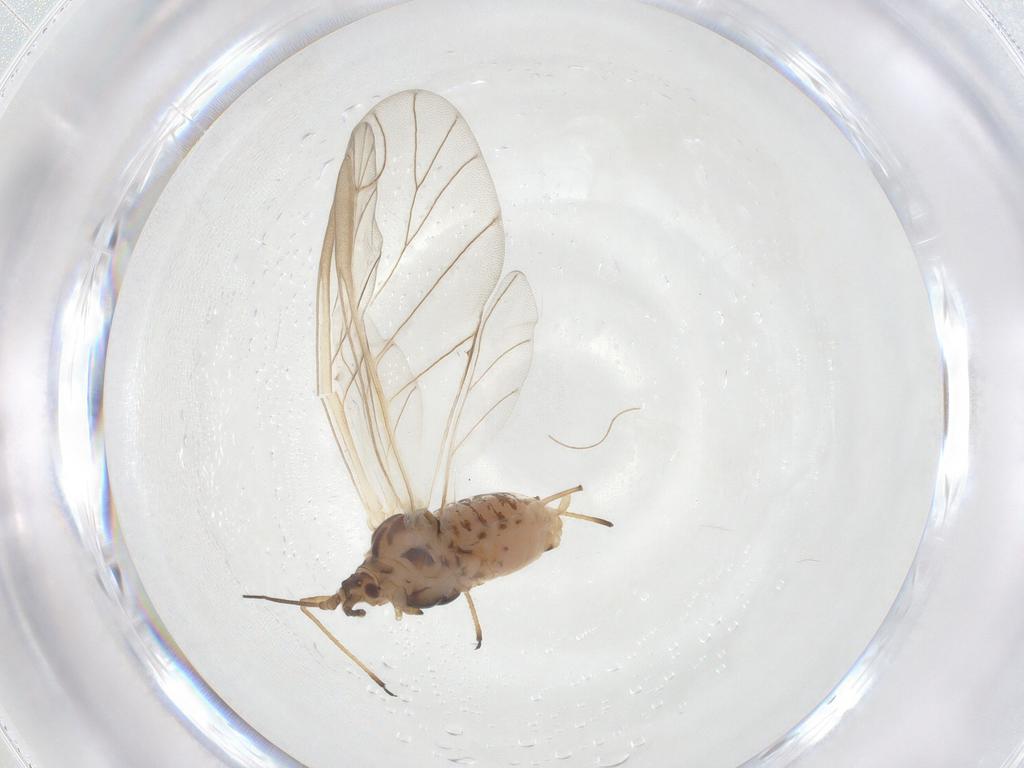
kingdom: Animalia
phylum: Arthropoda
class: Insecta
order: Hemiptera
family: Aphididae
